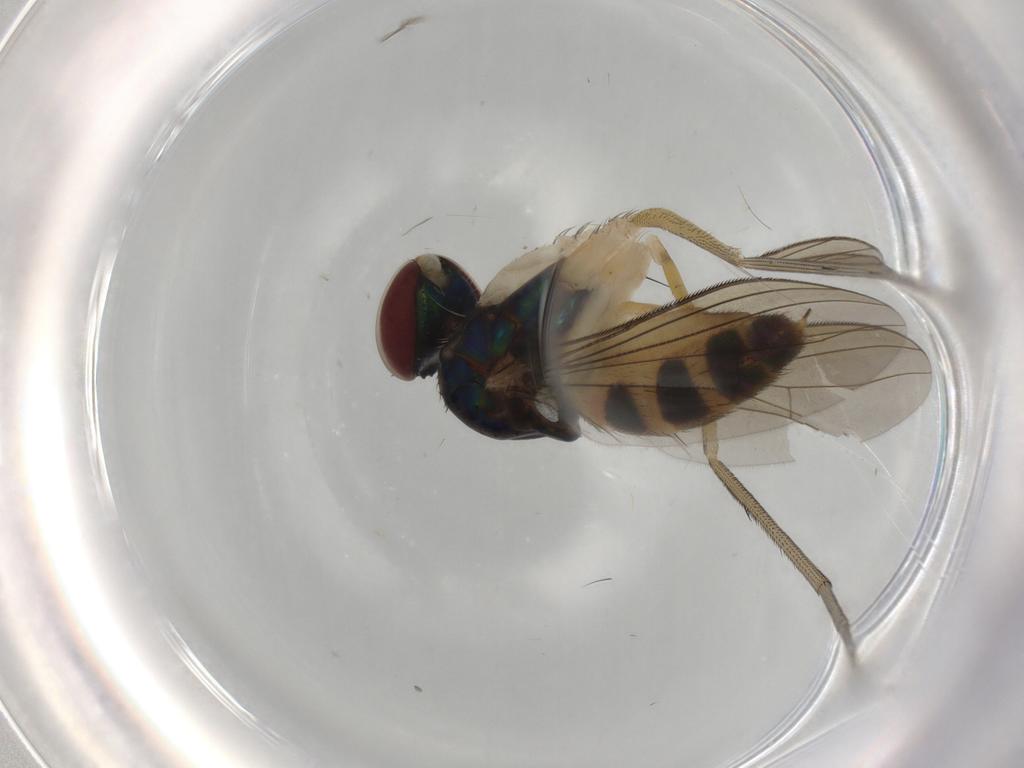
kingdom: Animalia
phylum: Arthropoda
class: Insecta
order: Diptera
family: Dolichopodidae
